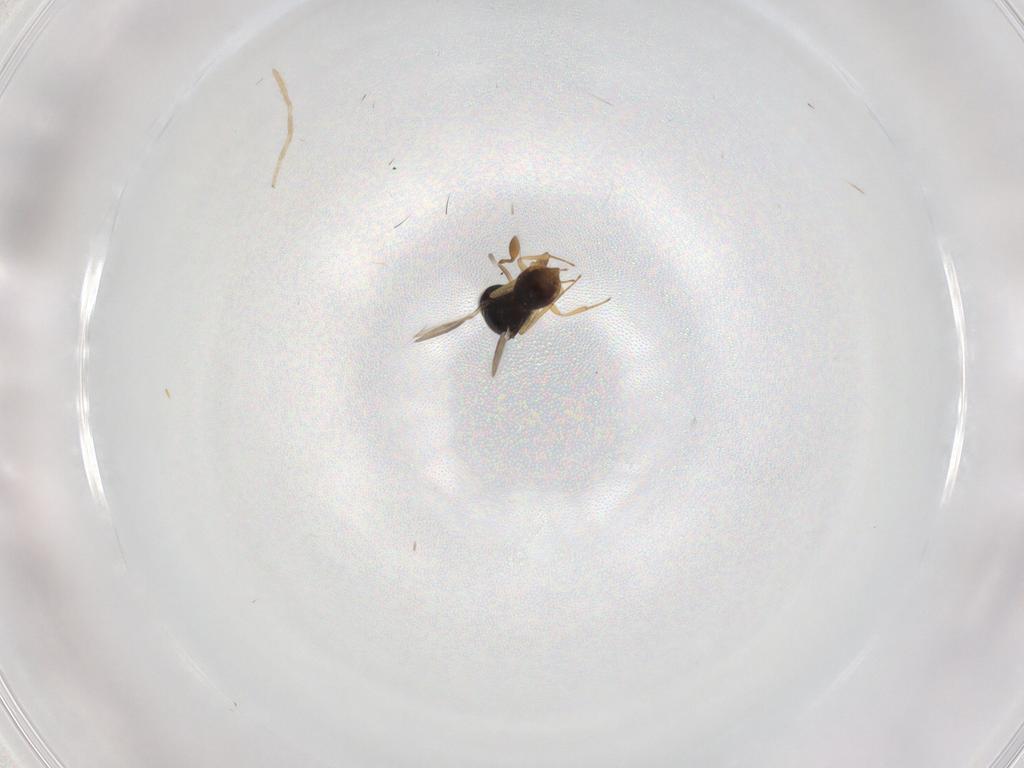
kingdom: Animalia
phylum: Arthropoda
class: Insecta
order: Hymenoptera
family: Scelionidae
